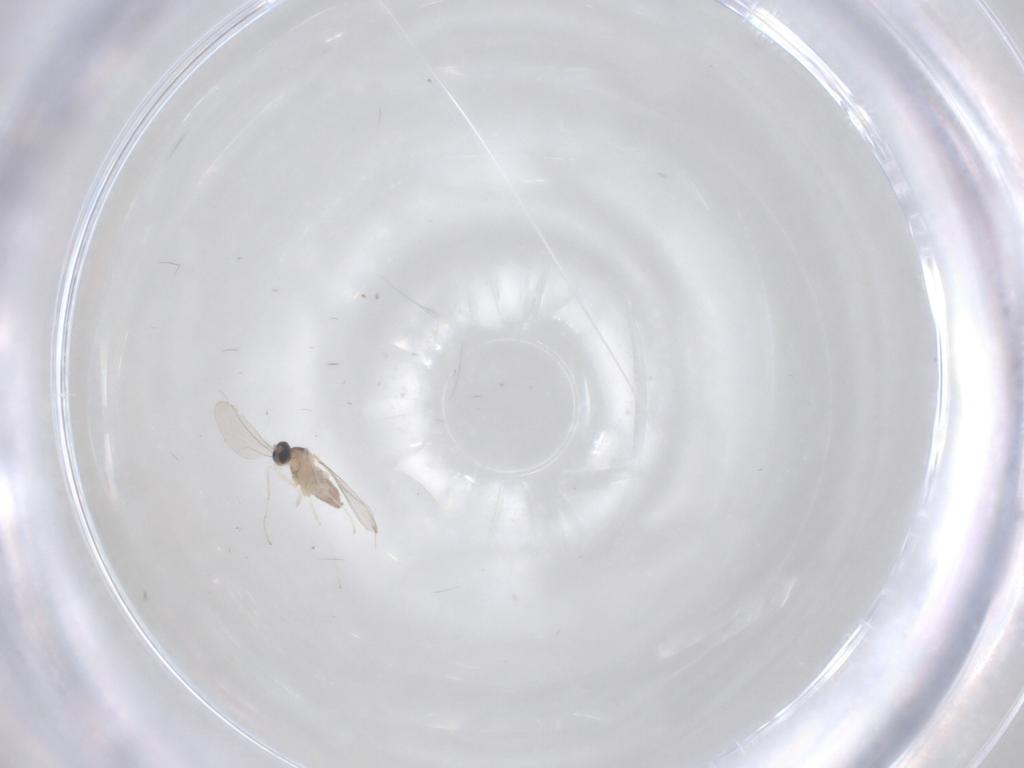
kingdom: Animalia
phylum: Arthropoda
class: Insecta
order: Diptera
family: Cecidomyiidae
